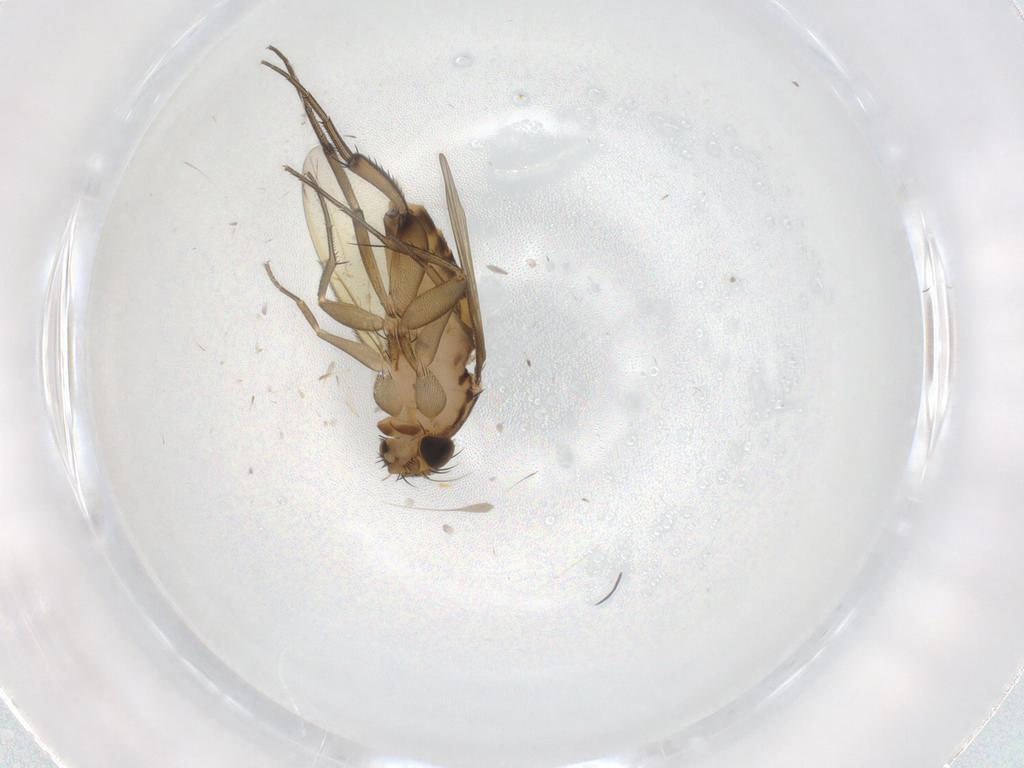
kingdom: Animalia
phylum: Arthropoda
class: Insecta
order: Diptera
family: Phoridae
